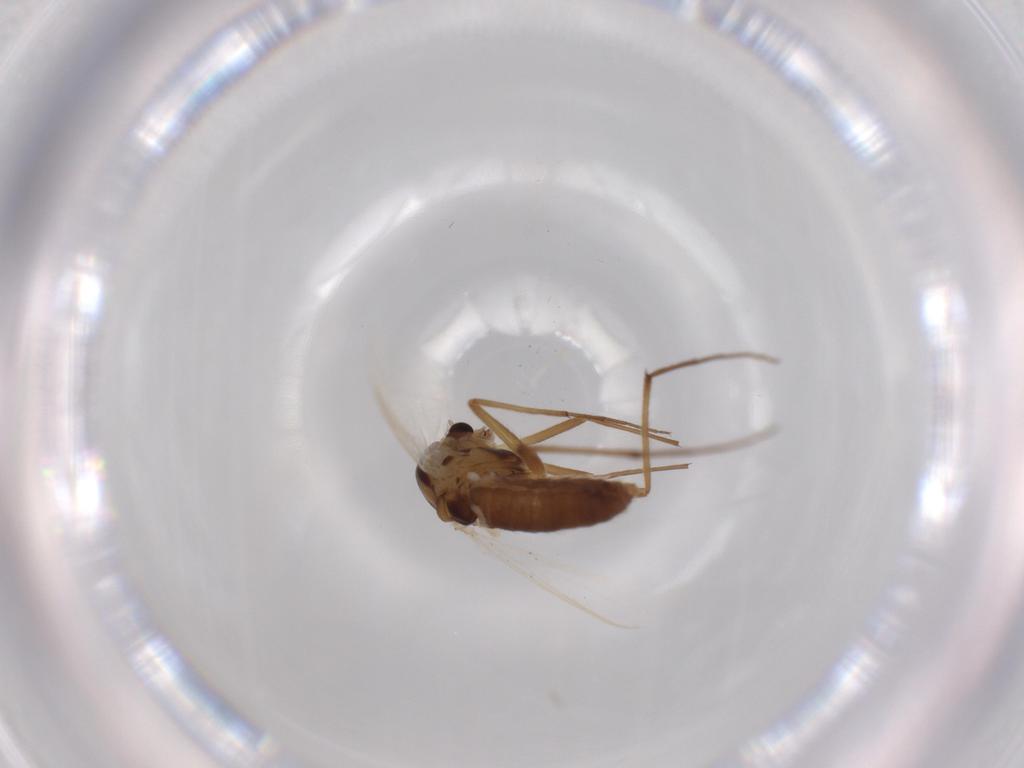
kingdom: Animalia
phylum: Arthropoda
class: Insecta
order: Diptera
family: Chironomidae
